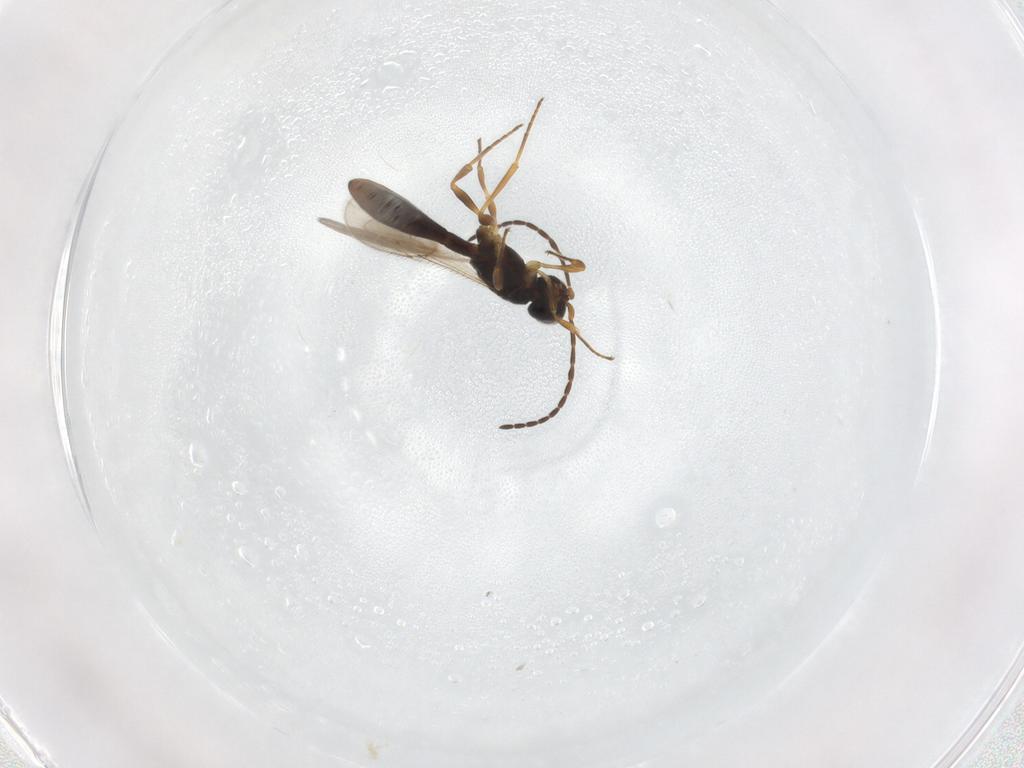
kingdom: Animalia
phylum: Arthropoda
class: Insecta
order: Hymenoptera
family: Scelionidae
